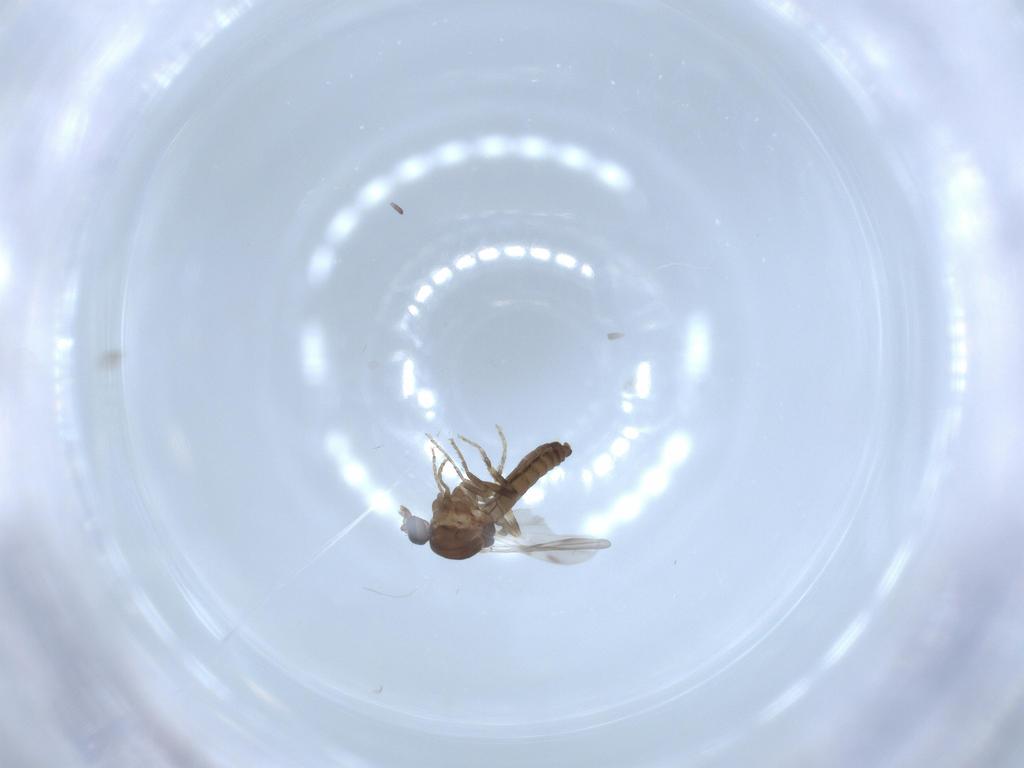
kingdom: Animalia
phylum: Arthropoda
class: Insecta
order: Diptera
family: Ceratopogonidae
